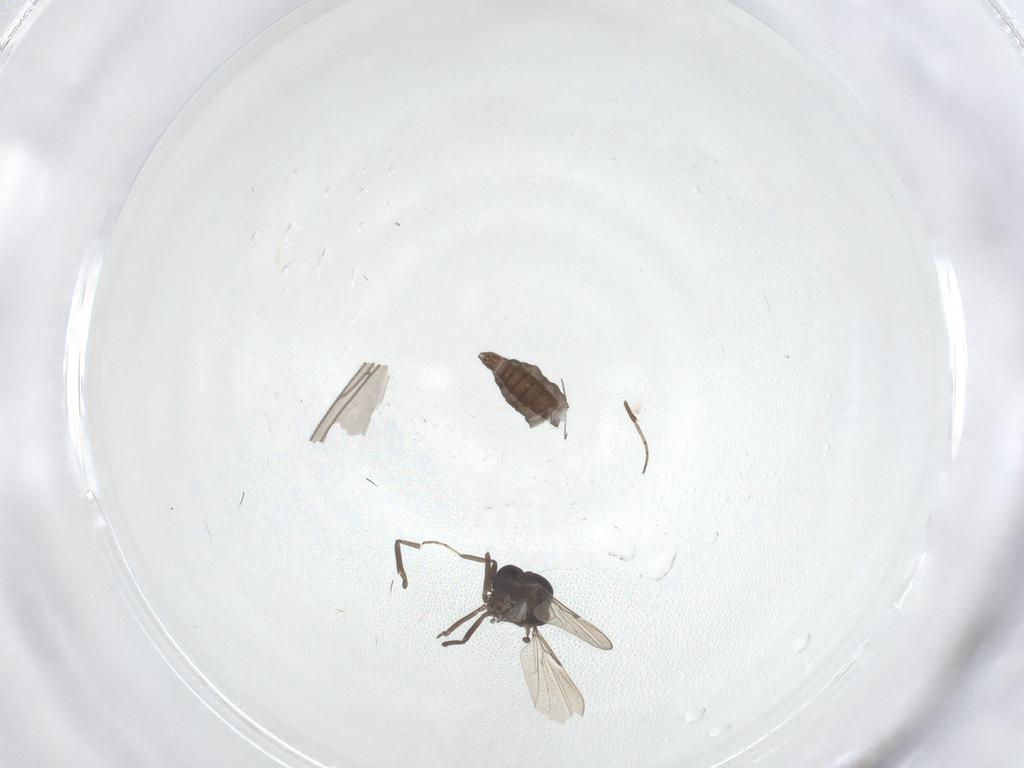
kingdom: Animalia
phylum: Arthropoda
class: Insecta
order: Diptera
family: Ceratopogonidae
